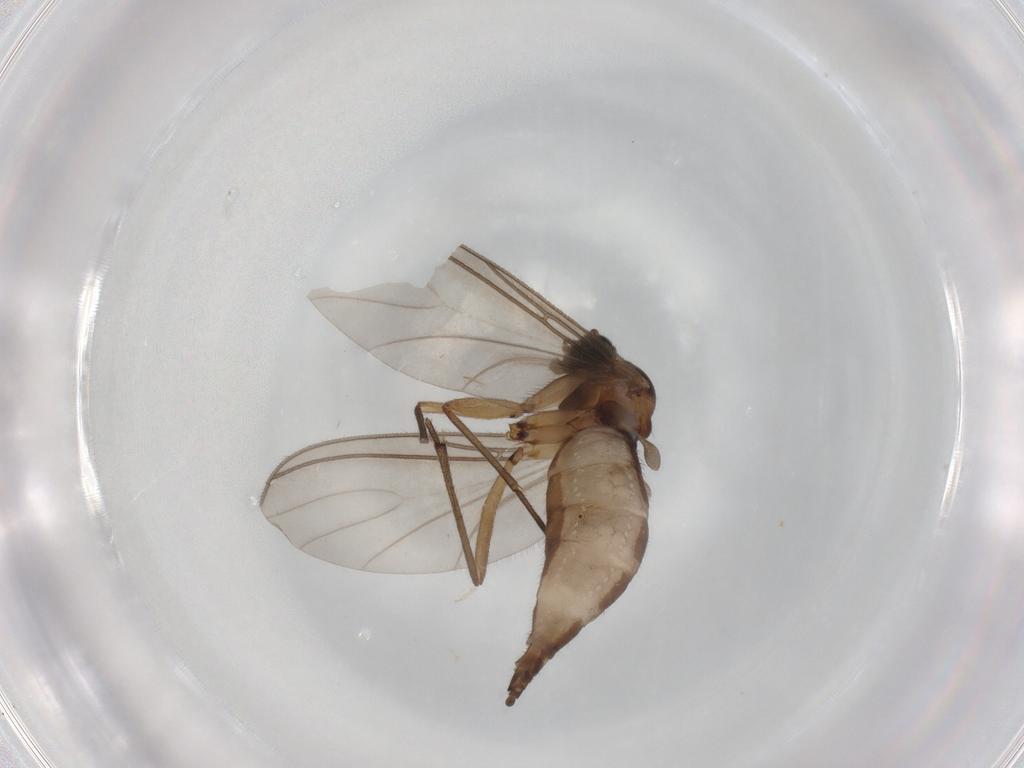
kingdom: Animalia
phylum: Arthropoda
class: Insecta
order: Diptera
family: Sciaridae
